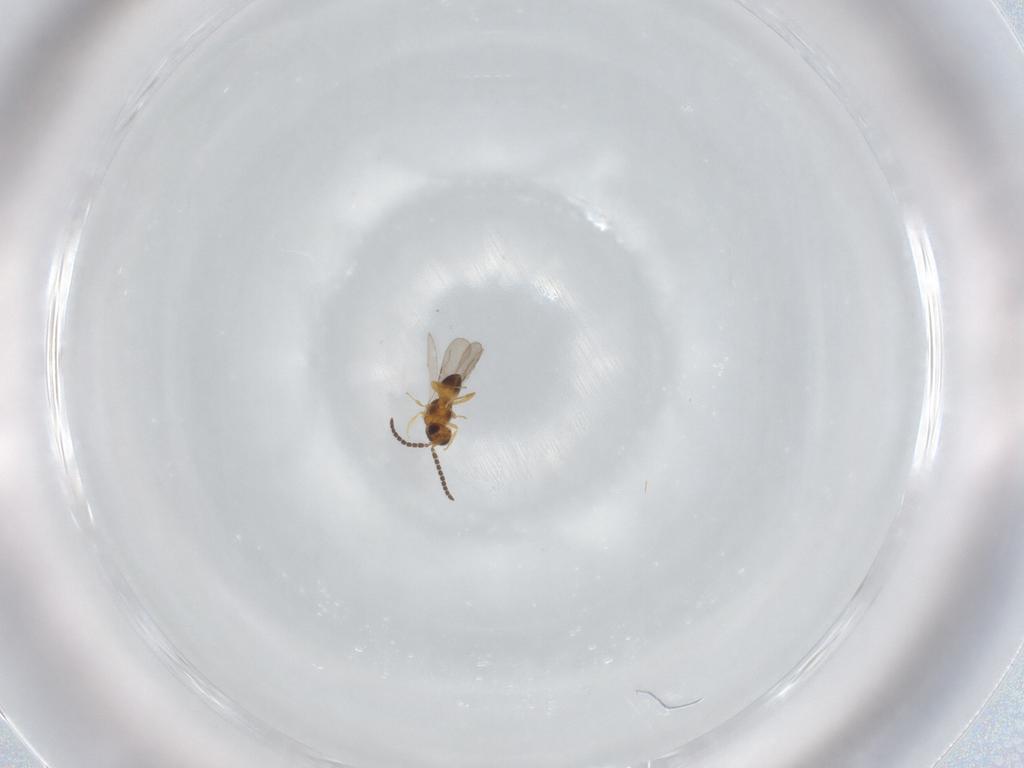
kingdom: Animalia
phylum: Arthropoda
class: Insecta
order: Hymenoptera
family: Ceraphronidae
